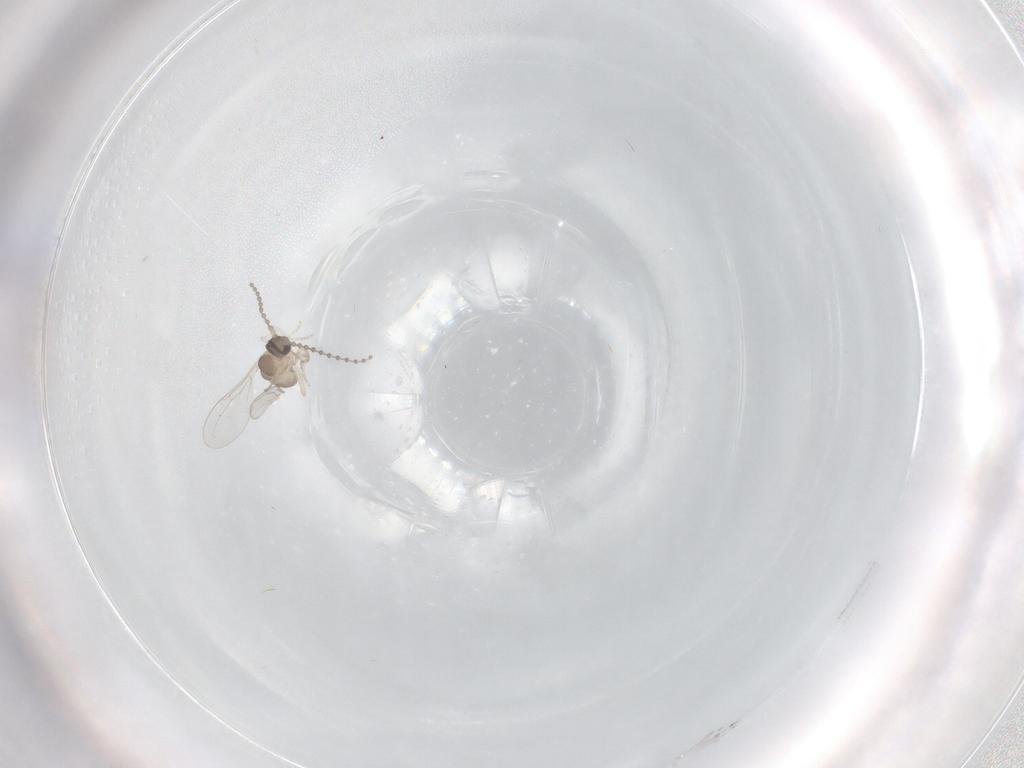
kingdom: Animalia
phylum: Arthropoda
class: Insecta
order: Diptera
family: Cecidomyiidae
